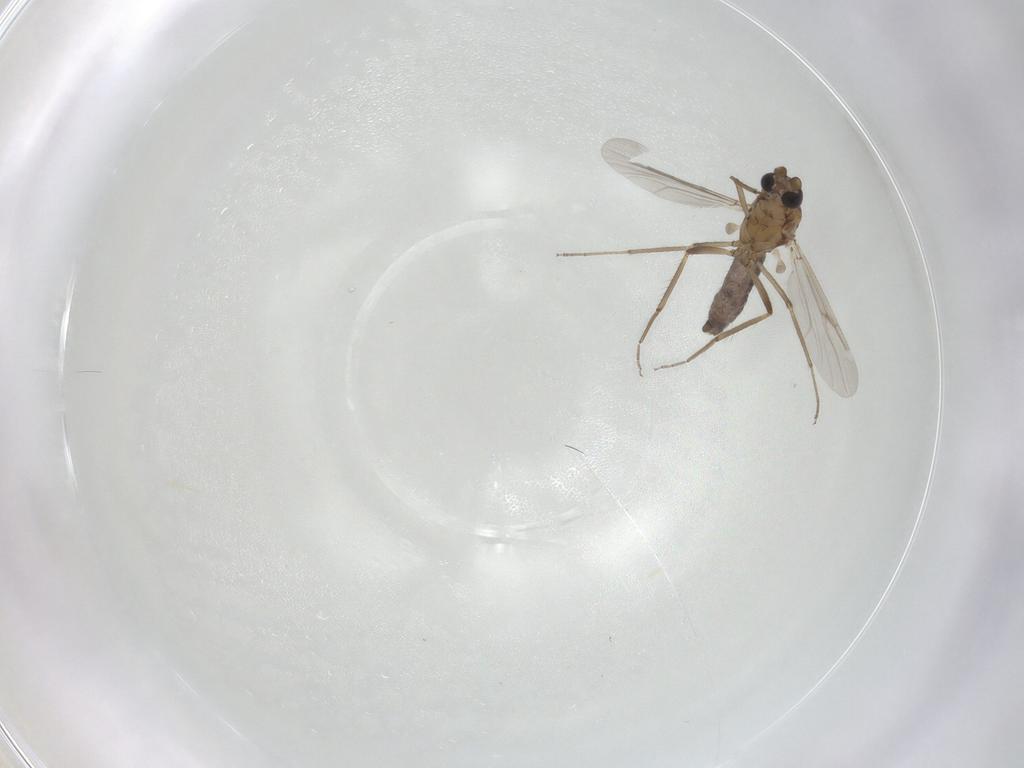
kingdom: Animalia
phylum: Arthropoda
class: Insecta
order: Diptera
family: Ceratopogonidae
